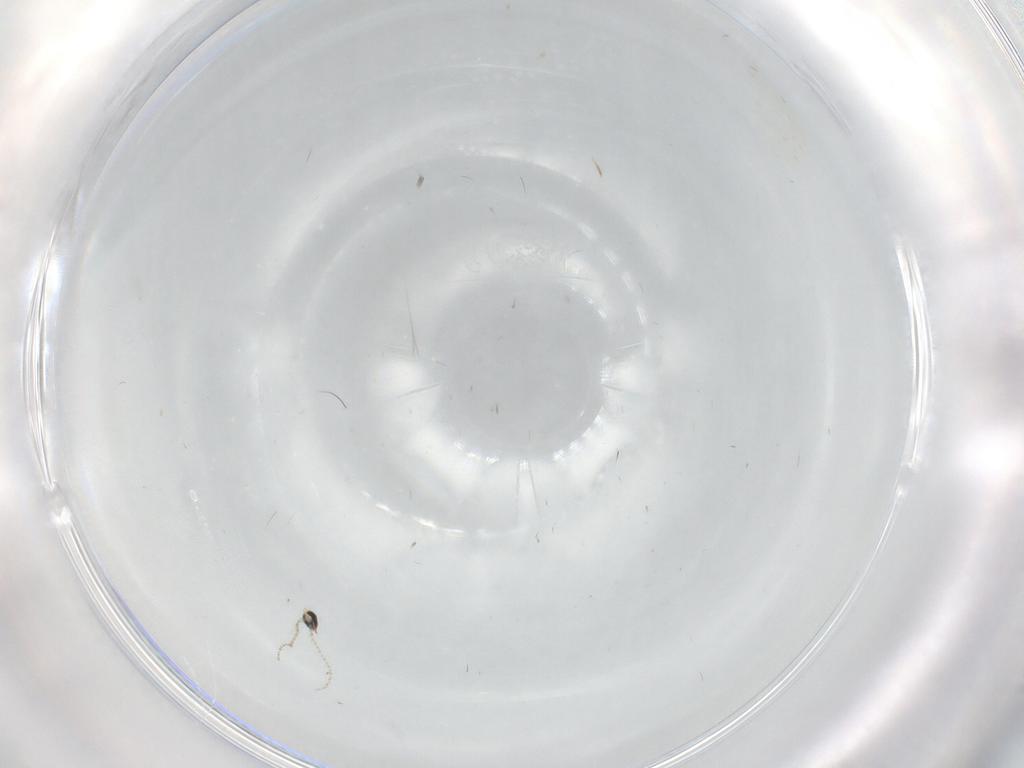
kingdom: Animalia
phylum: Arthropoda
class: Insecta
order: Diptera
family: Cecidomyiidae
